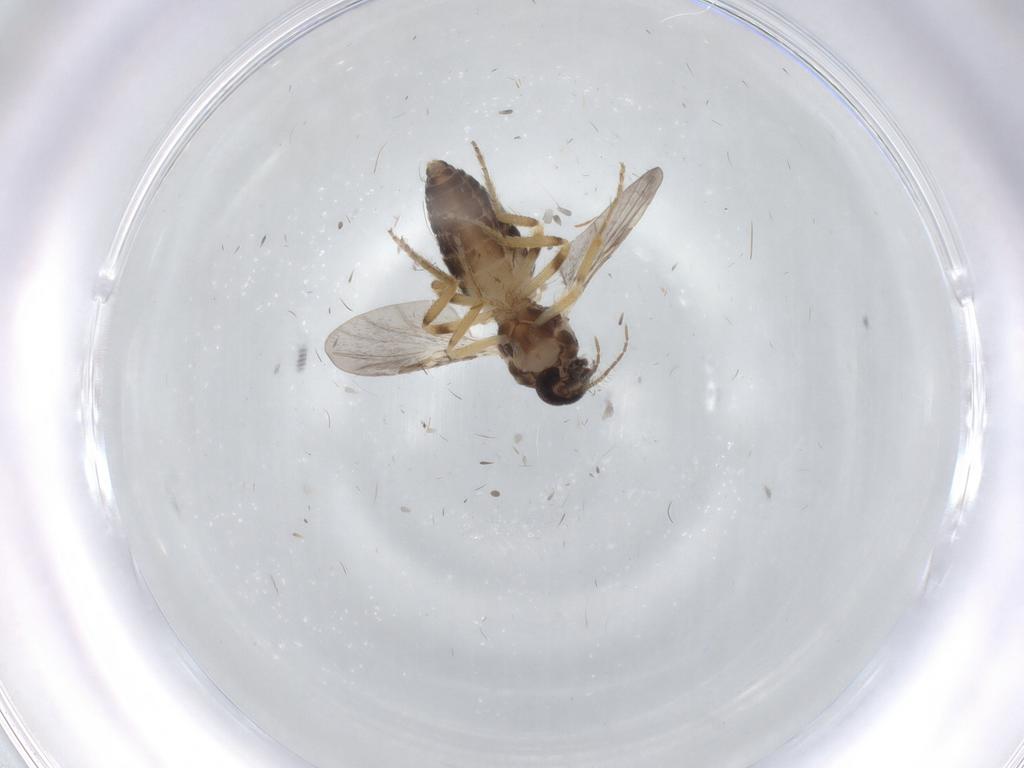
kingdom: Animalia
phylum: Arthropoda
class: Insecta
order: Diptera
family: Ceratopogonidae
